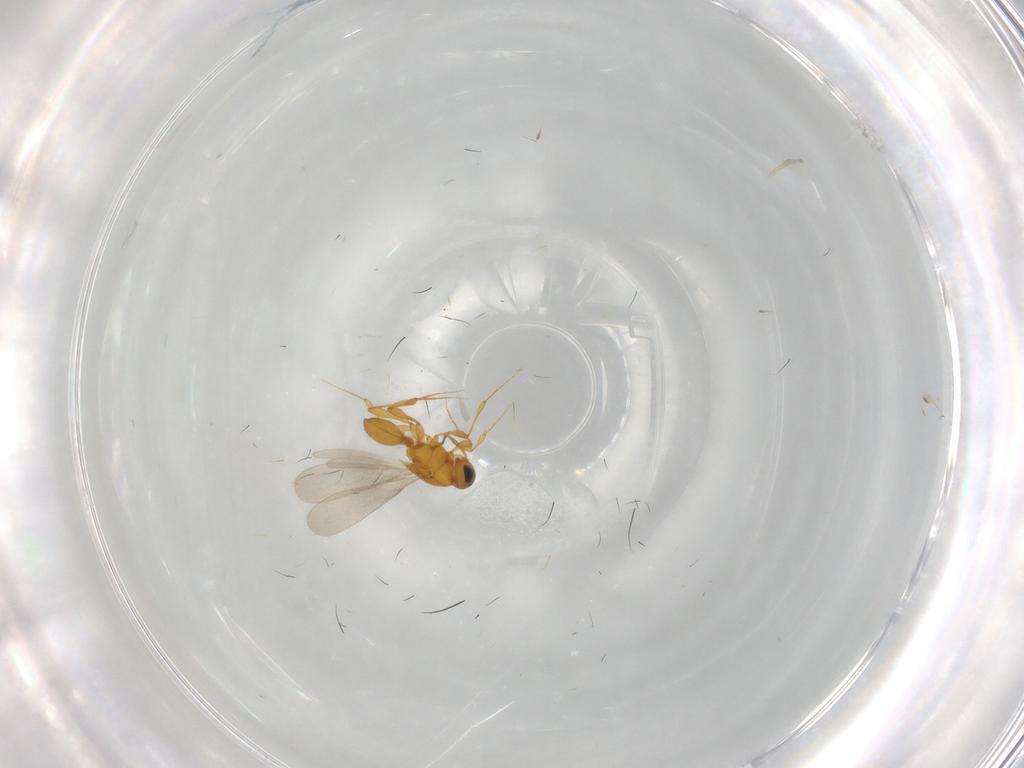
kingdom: Animalia
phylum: Arthropoda
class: Insecta
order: Hymenoptera
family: Platygastridae
